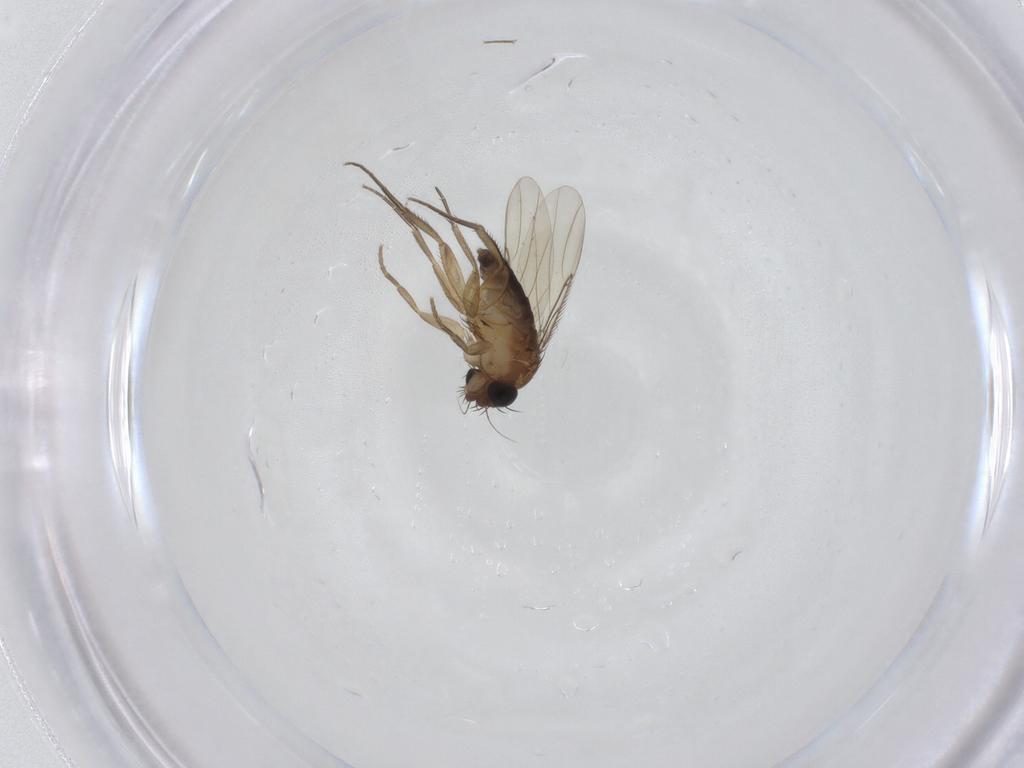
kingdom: Animalia
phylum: Arthropoda
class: Insecta
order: Diptera
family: Phoridae
